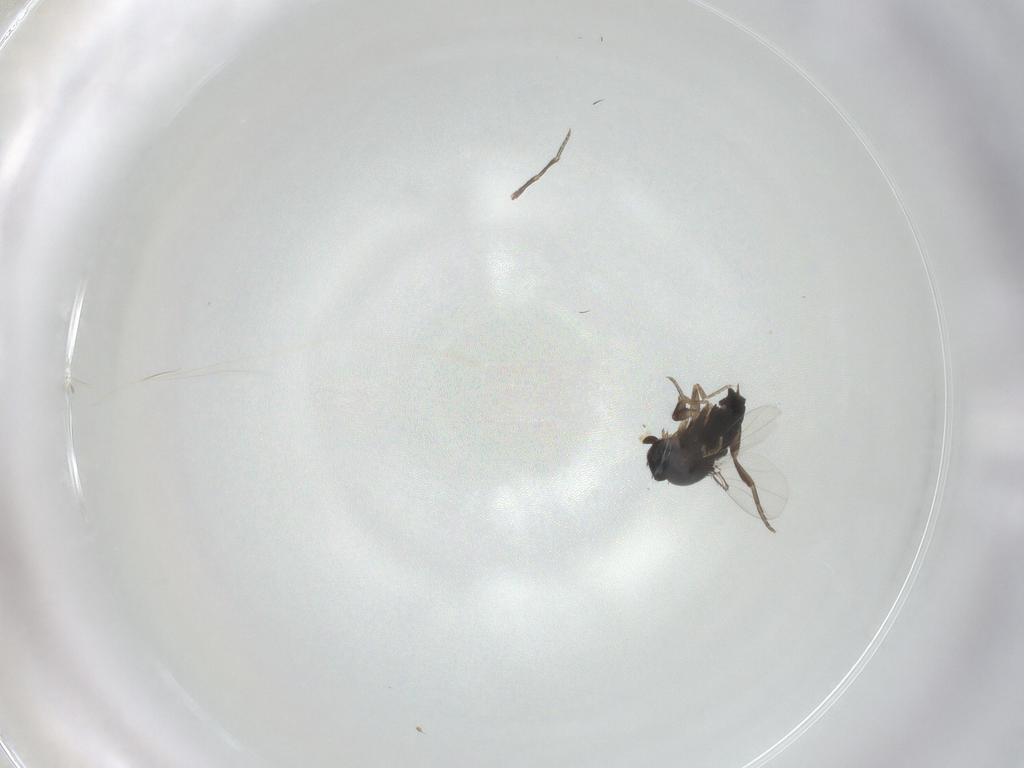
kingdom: Animalia
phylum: Arthropoda
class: Insecta
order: Diptera
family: Phoridae
